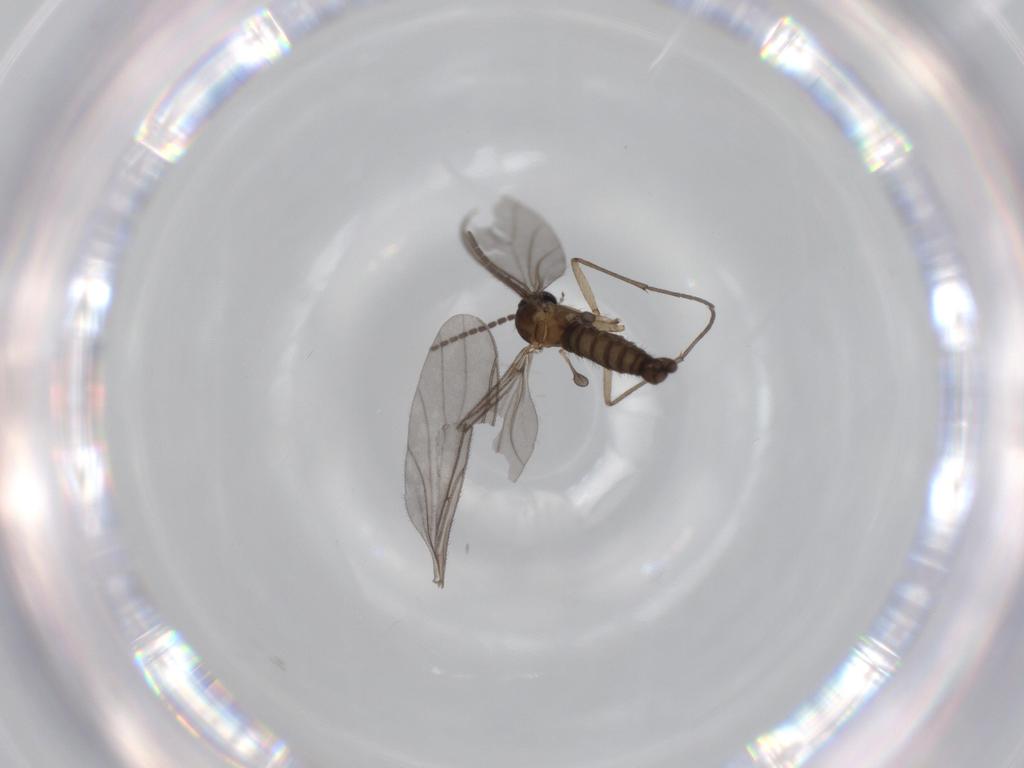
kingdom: Animalia
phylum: Arthropoda
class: Insecta
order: Diptera
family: Sciaridae
